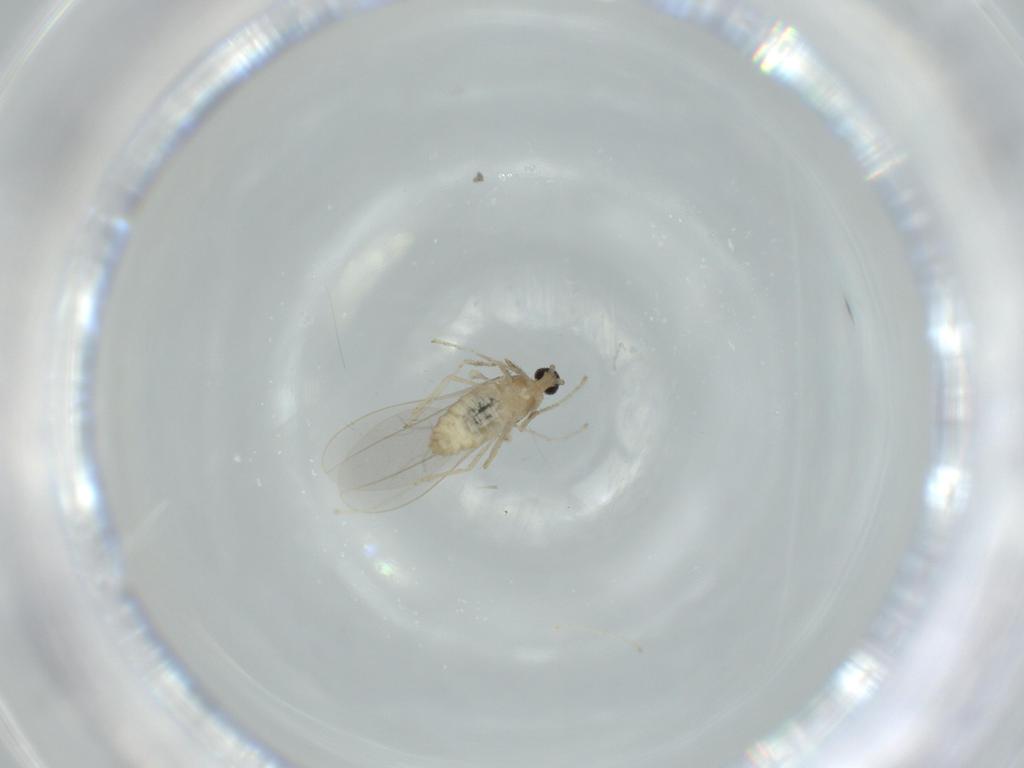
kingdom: Animalia
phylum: Arthropoda
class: Insecta
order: Diptera
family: Cecidomyiidae
